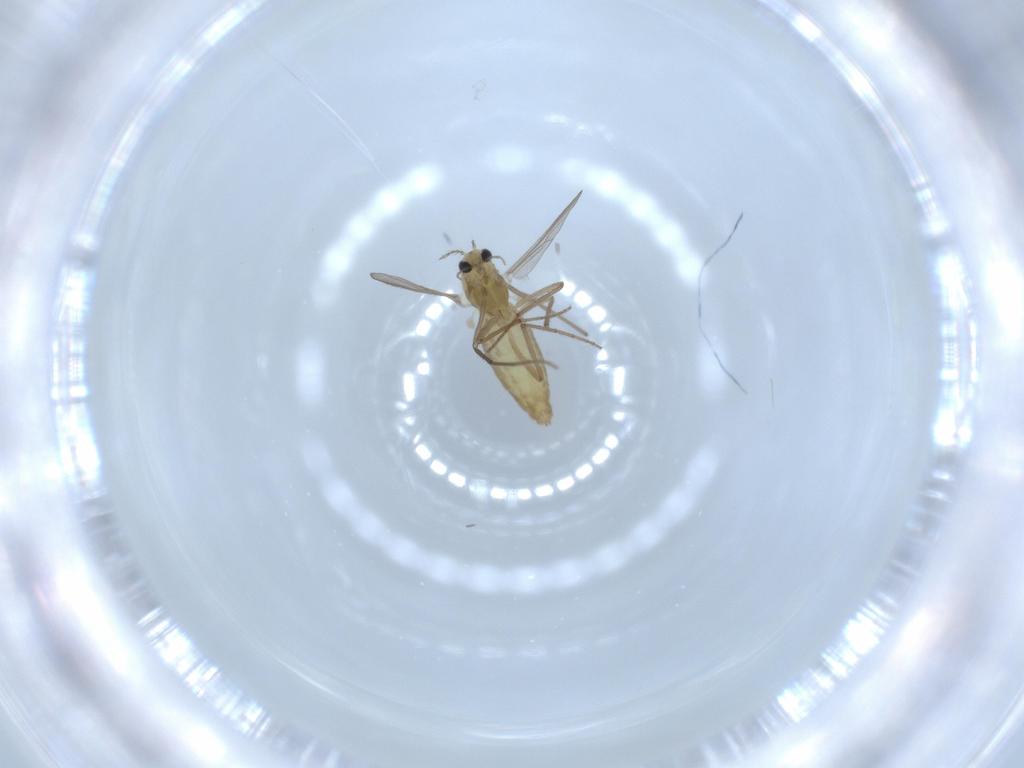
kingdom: Animalia
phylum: Arthropoda
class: Insecta
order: Diptera
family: Chironomidae
